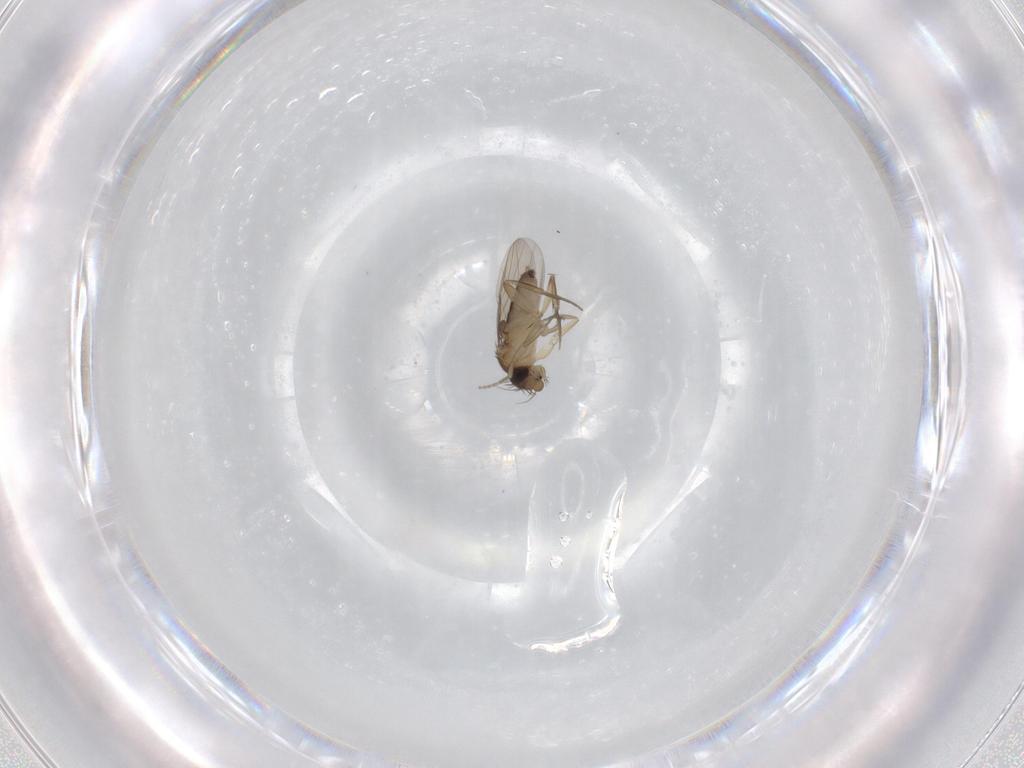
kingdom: Animalia
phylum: Arthropoda
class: Insecta
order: Diptera
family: Phoridae
